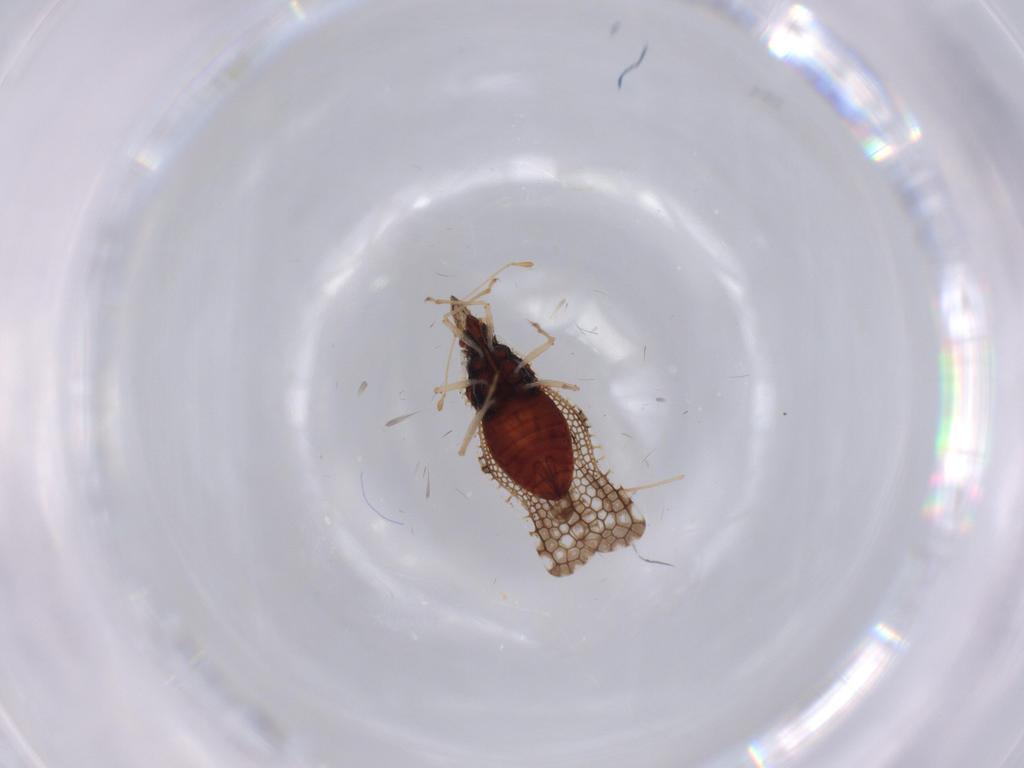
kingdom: Animalia
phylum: Arthropoda
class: Insecta
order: Hemiptera
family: Tingidae
